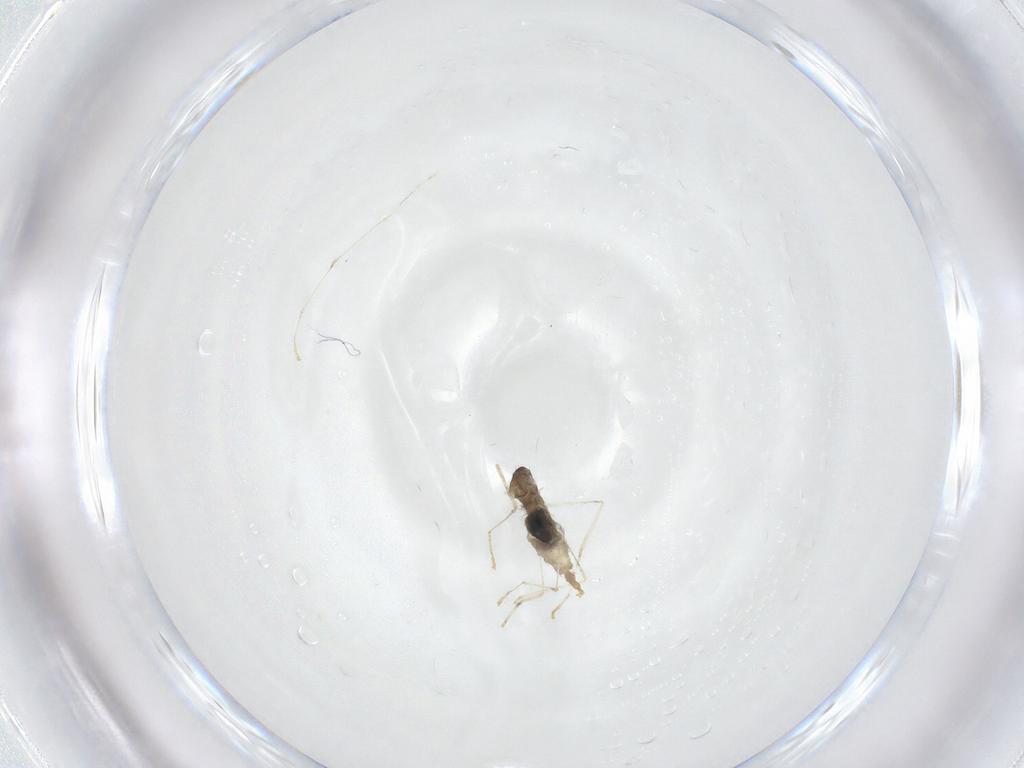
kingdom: Animalia
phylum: Arthropoda
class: Insecta
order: Diptera
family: Cecidomyiidae
